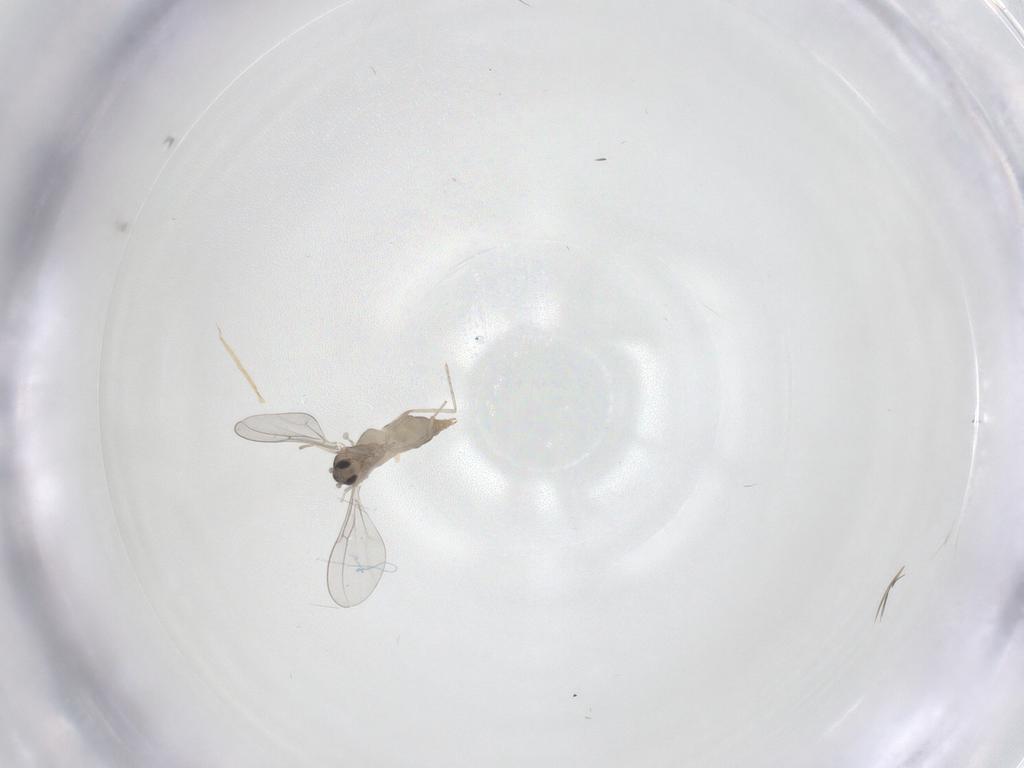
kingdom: Animalia
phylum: Arthropoda
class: Insecta
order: Diptera
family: Cecidomyiidae
